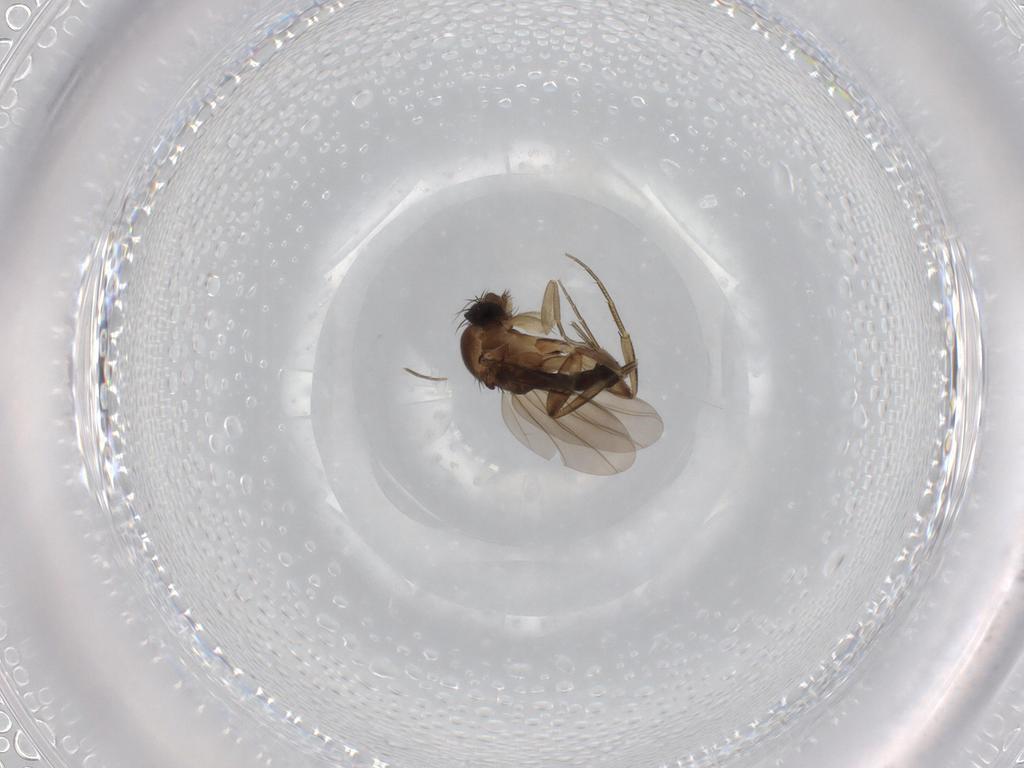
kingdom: Animalia
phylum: Arthropoda
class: Insecta
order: Diptera
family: Phoridae
